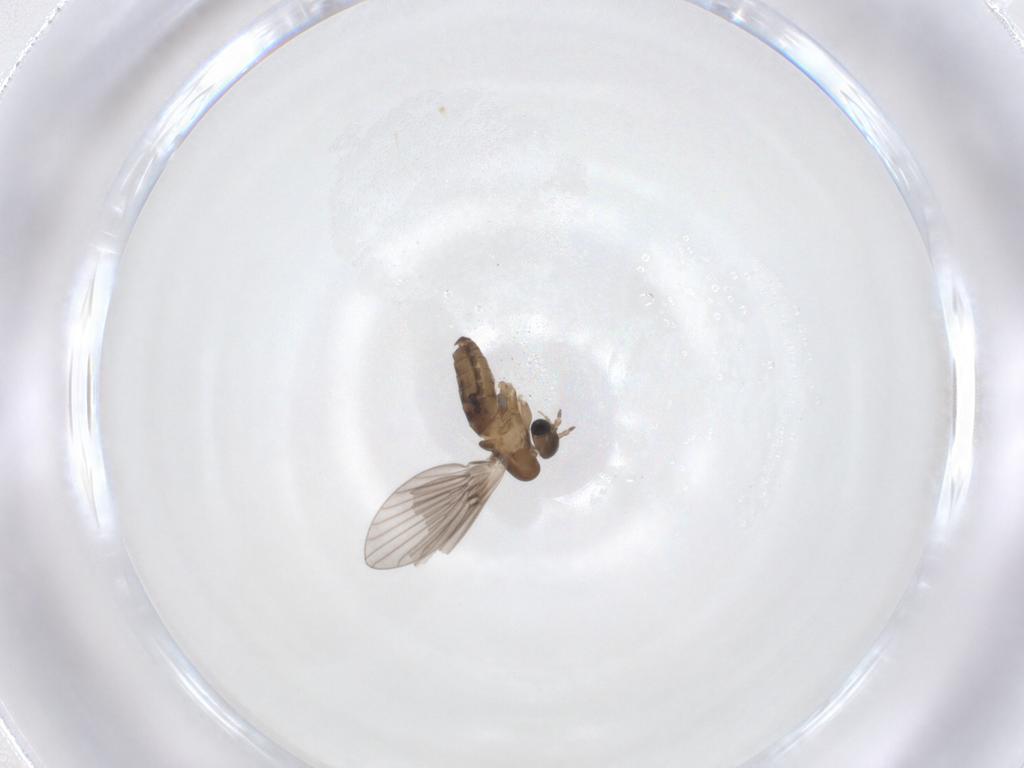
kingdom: Animalia
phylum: Arthropoda
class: Insecta
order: Diptera
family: Psychodidae
